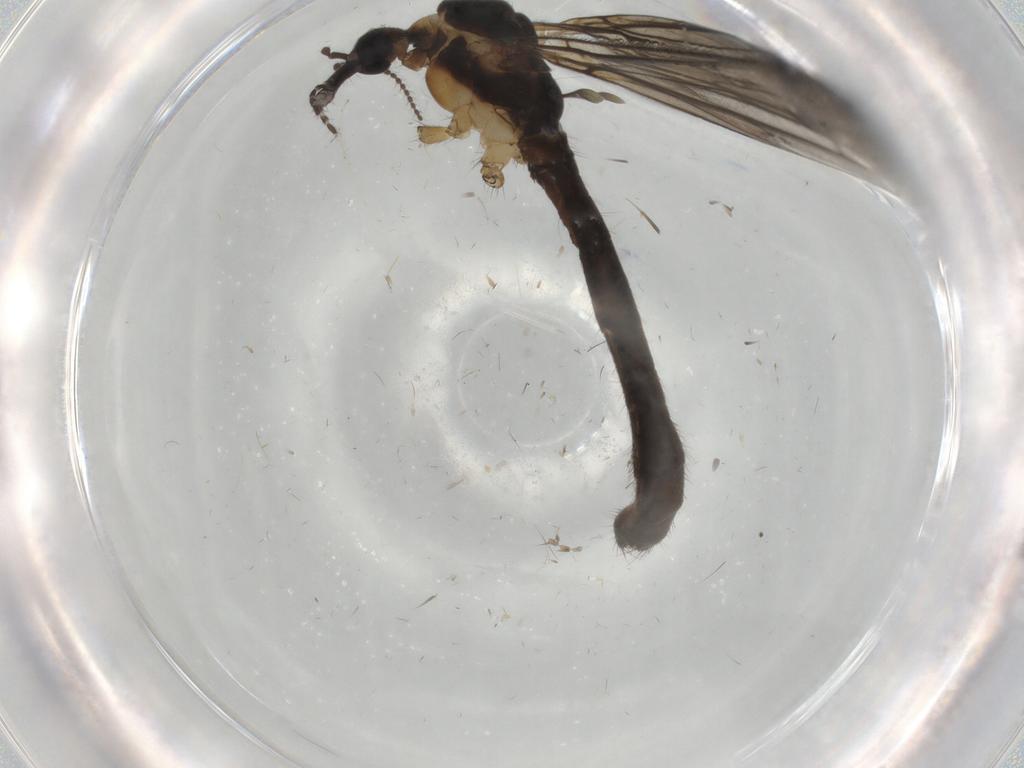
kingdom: Animalia
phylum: Arthropoda
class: Insecta
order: Diptera
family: Limoniidae
